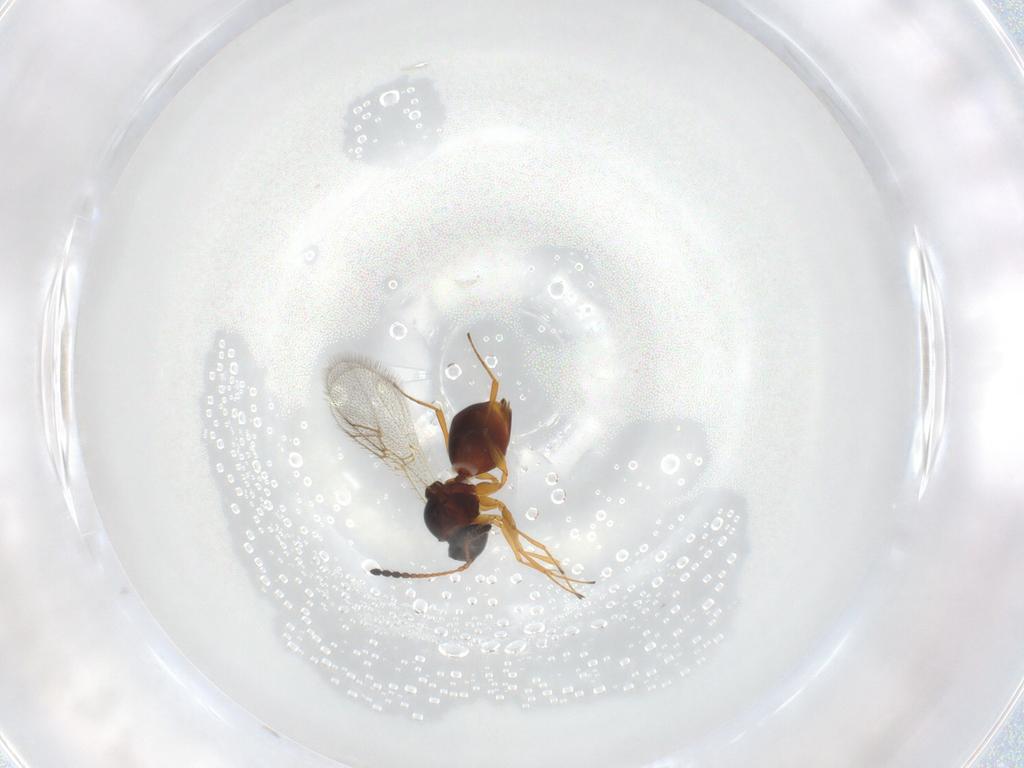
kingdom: Animalia
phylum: Arthropoda
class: Insecta
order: Hymenoptera
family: Figitidae
